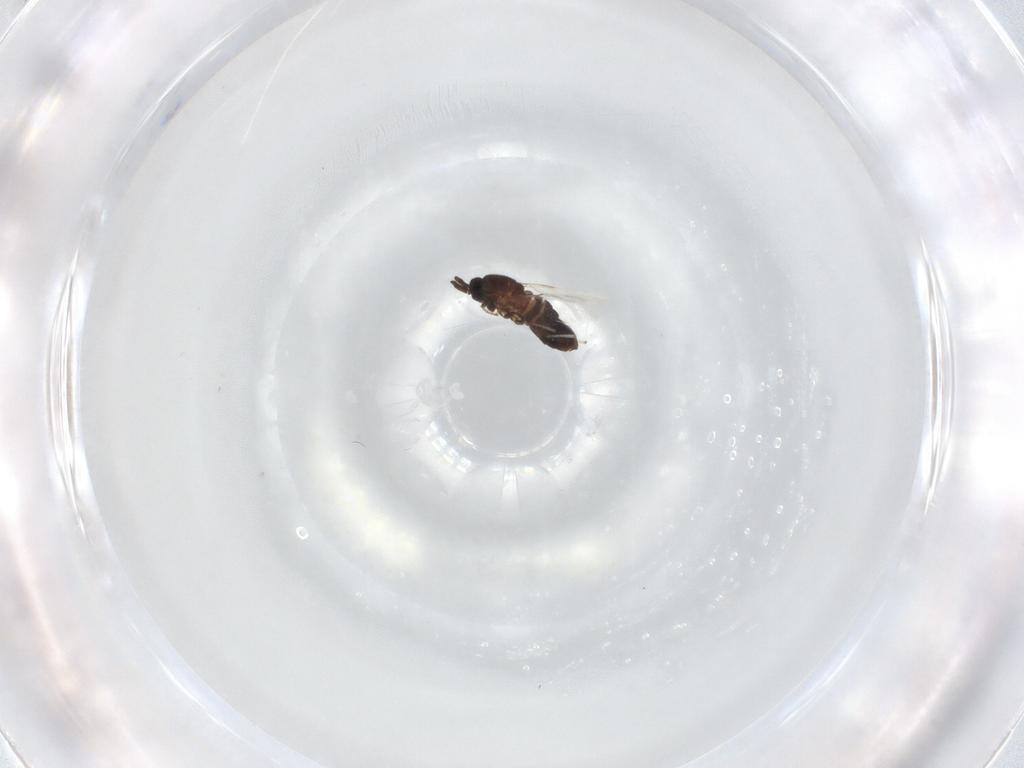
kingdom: Animalia
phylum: Arthropoda
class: Insecta
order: Diptera
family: Scatopsidae
